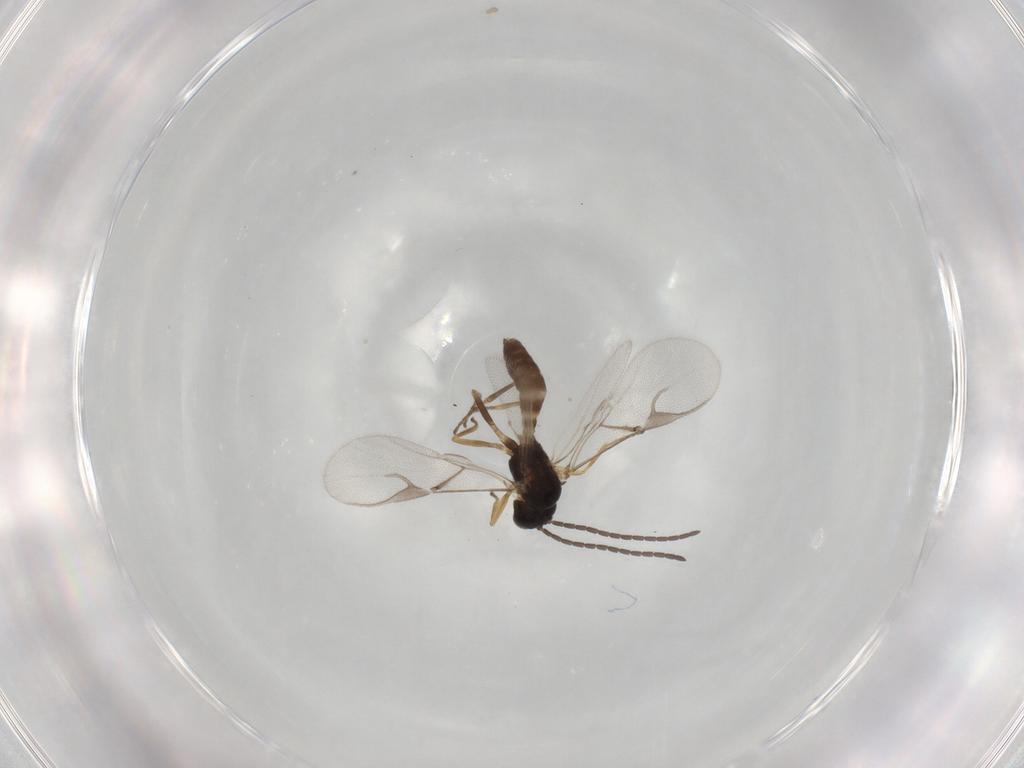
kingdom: Animalia
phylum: Arthropoda
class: Insecta
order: Hymenoptera
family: Braconidae
